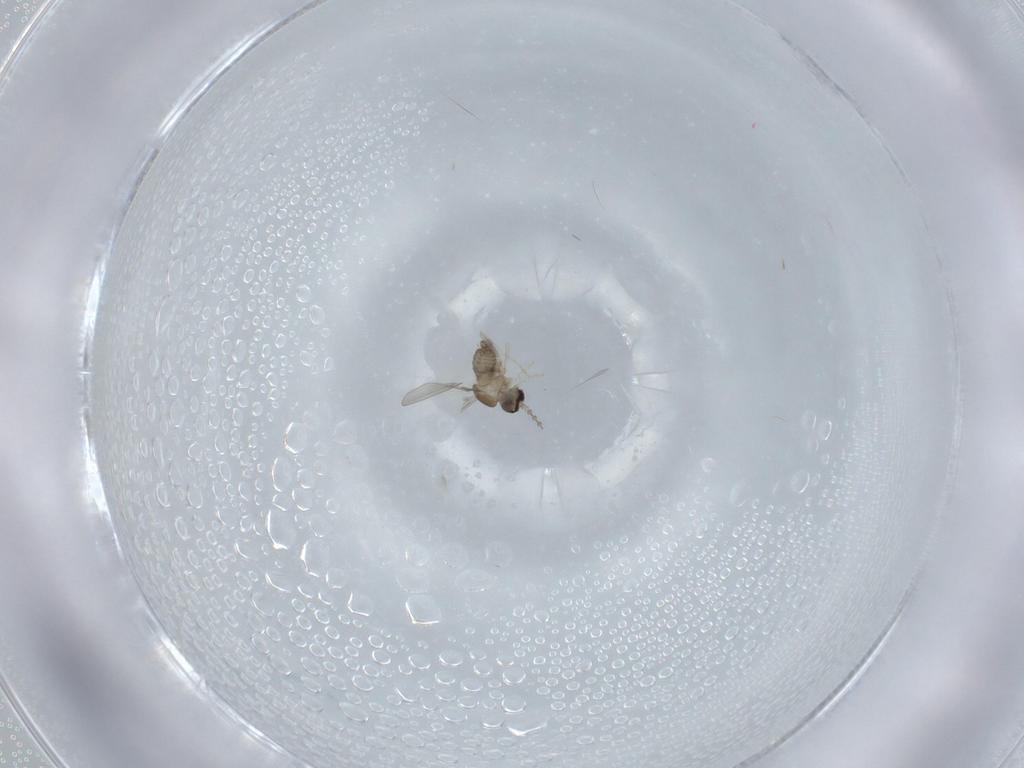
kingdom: Animalia
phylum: Arthropoda
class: Insecta
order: Diptera
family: Cecidomyiidae
